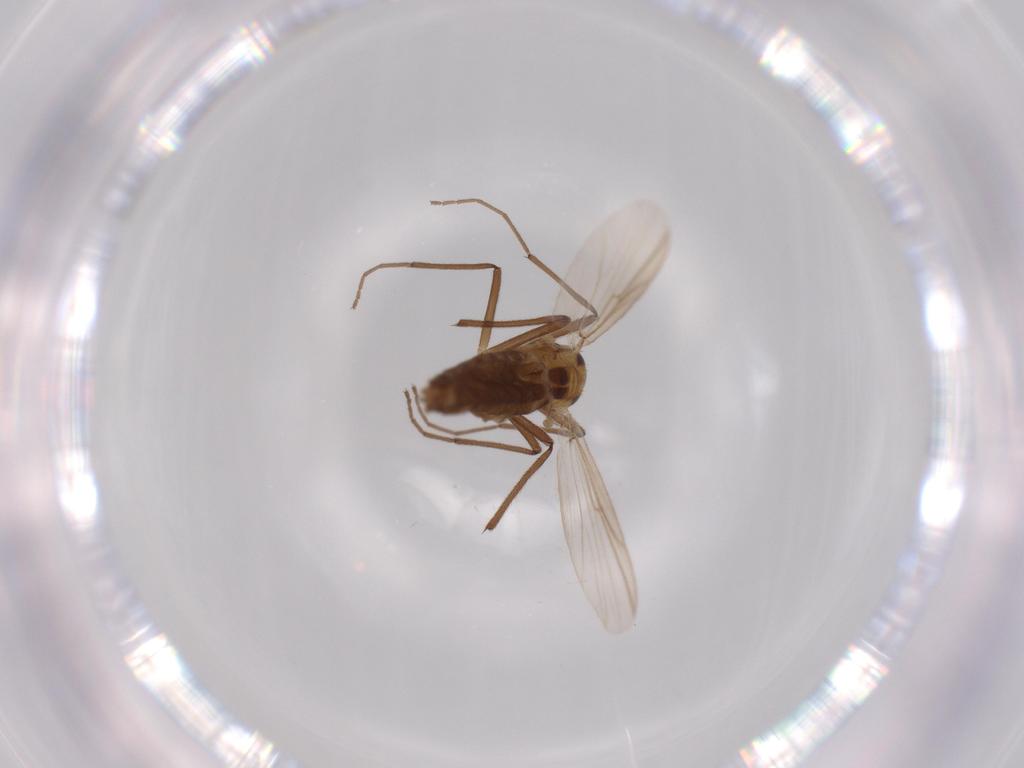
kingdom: Animalia
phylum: Arthropoda
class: Insecta
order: Diptera
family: Chironomidae
